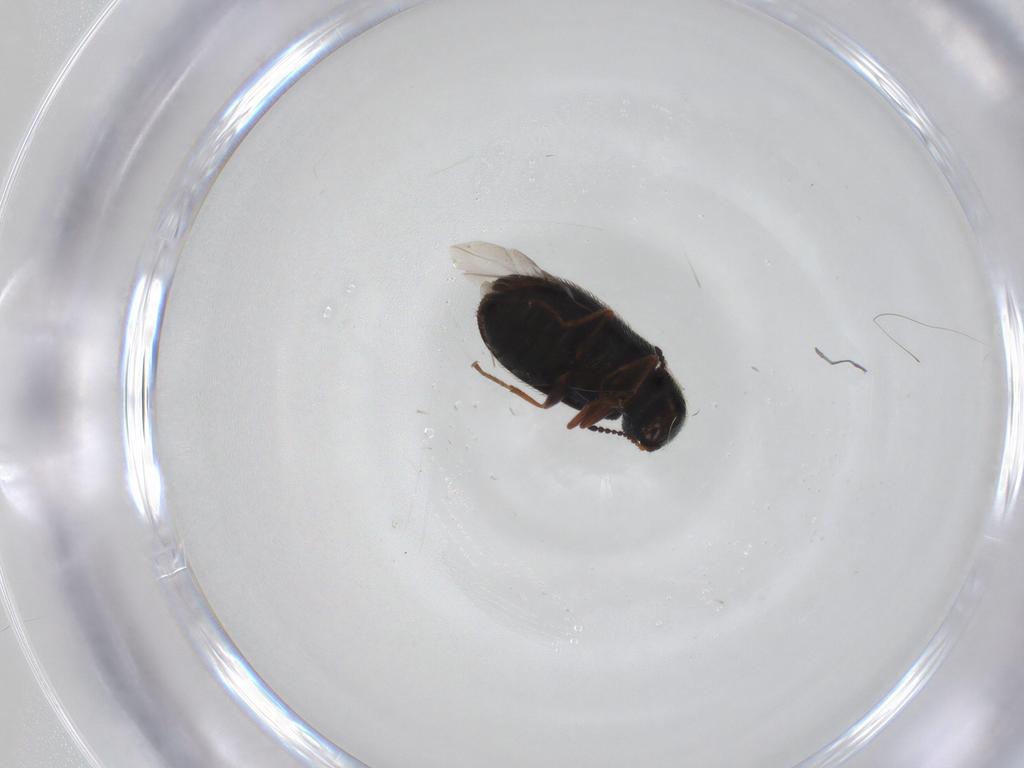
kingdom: Animalia
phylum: Arthropoda
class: Insecta
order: Coleoptera
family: Melyridae
